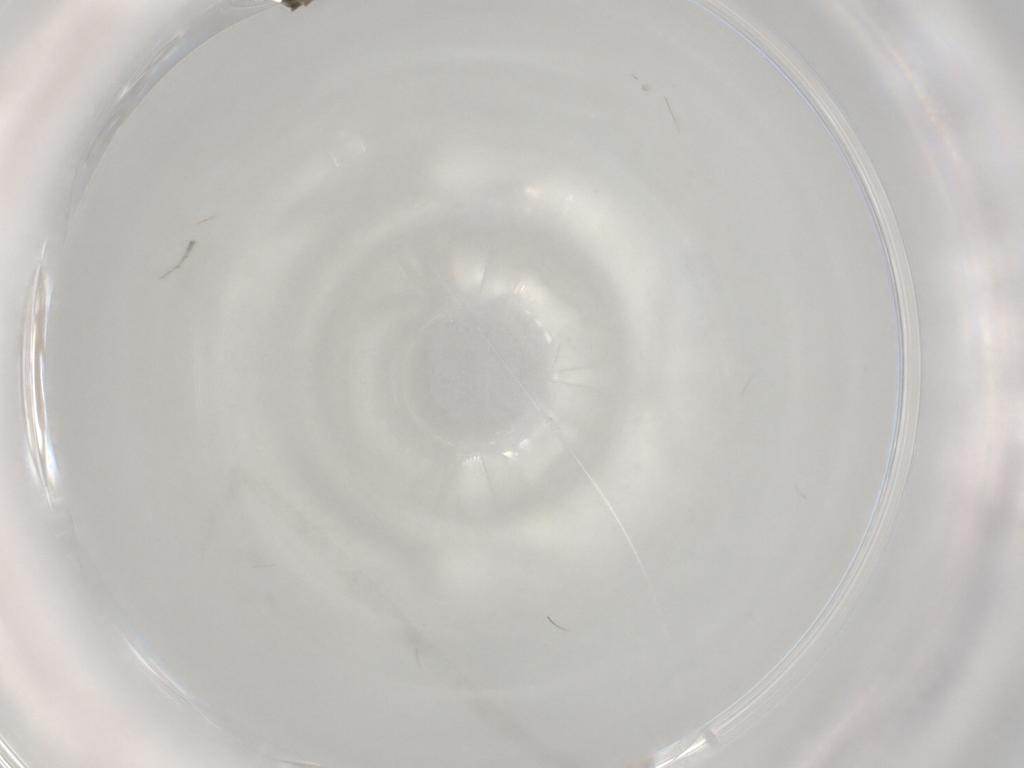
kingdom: Animalia
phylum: Arthropoda
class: Insecta
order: Diptera
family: Cecidomyiidae
